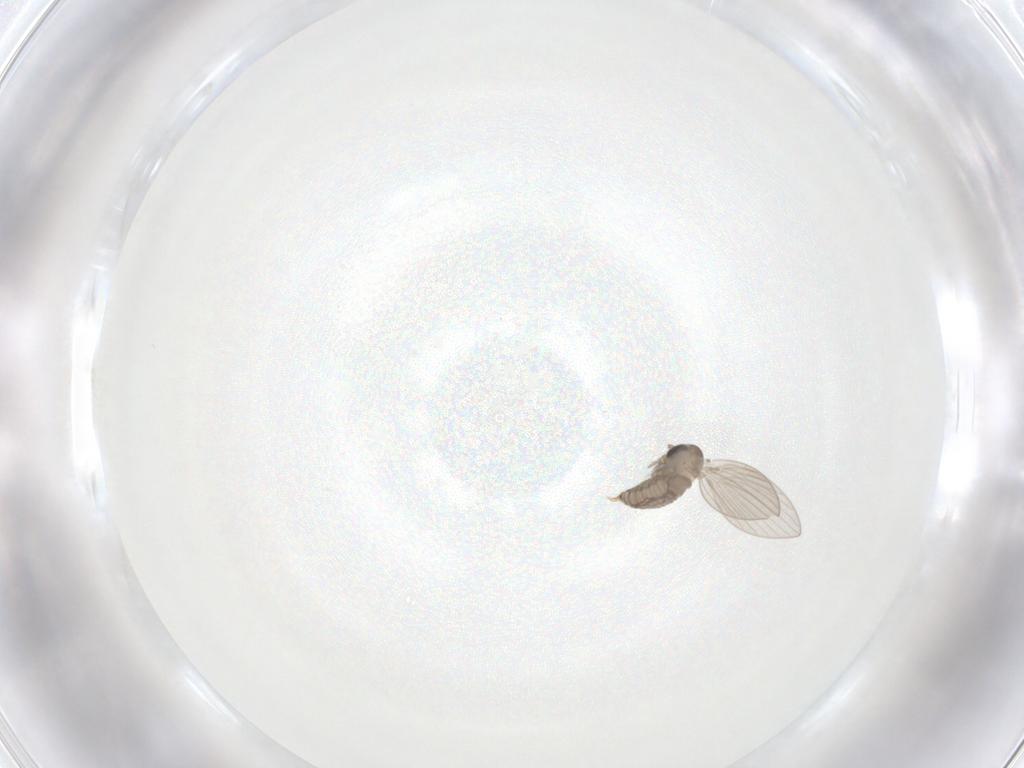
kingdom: Animalia
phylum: Arthropoda
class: Insecta
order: Diptera
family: Psychodidae
